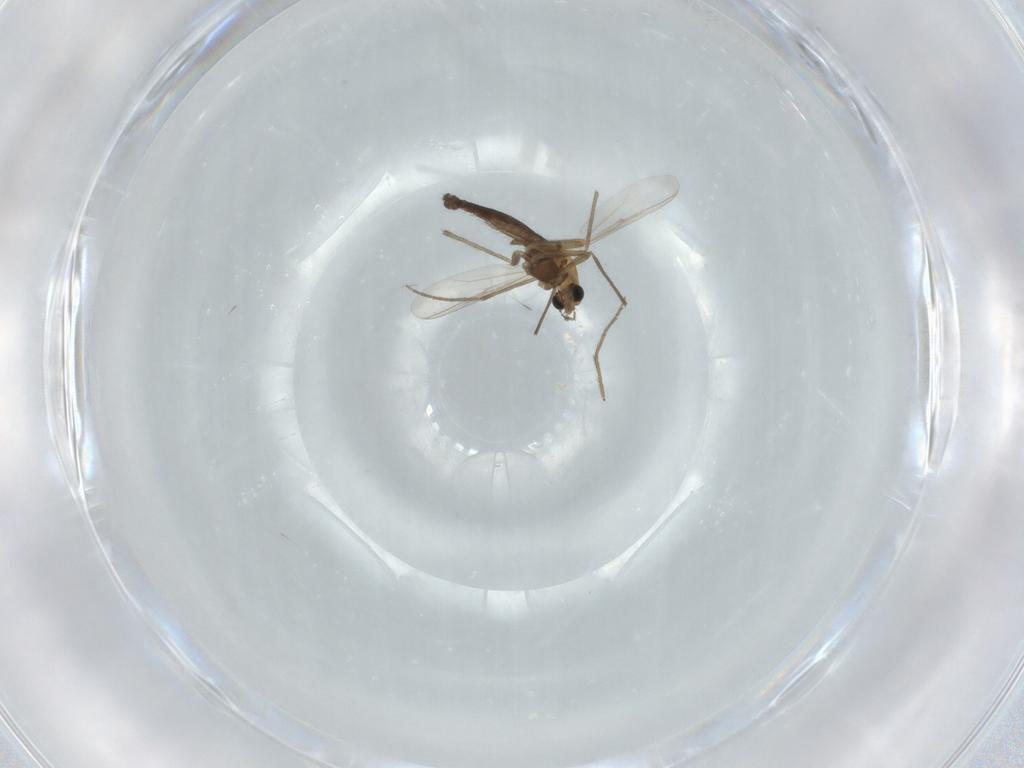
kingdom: Animalia
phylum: Arthropoda
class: Insecta
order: Diptera
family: Chironomidae
